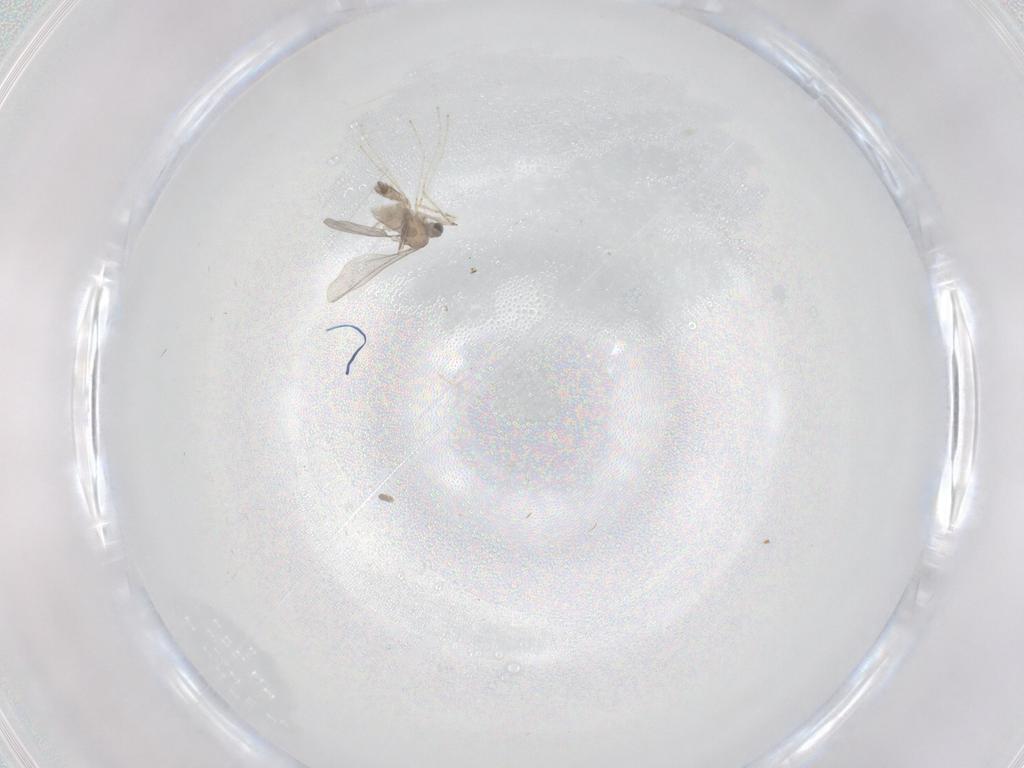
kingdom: Animalia
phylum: Arthropoda
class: Insecta
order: Diptera
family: Cecidomyiidae
